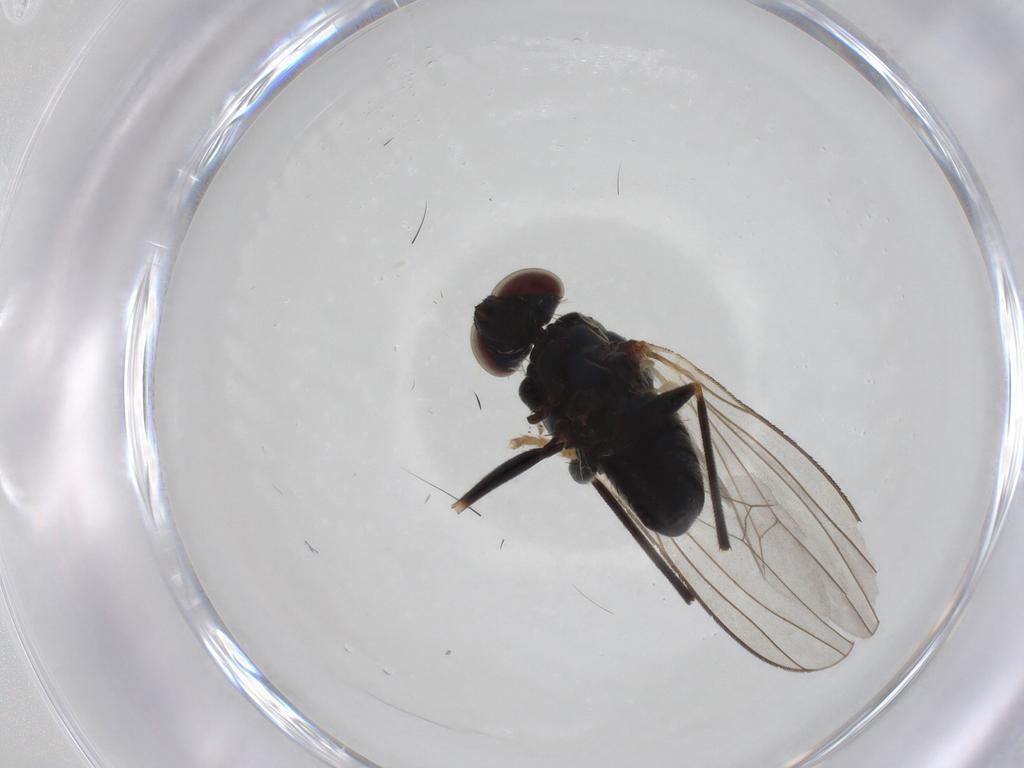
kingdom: Animalia
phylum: Arthropoda
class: Insecta
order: Diptera
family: Dolichopodidae
